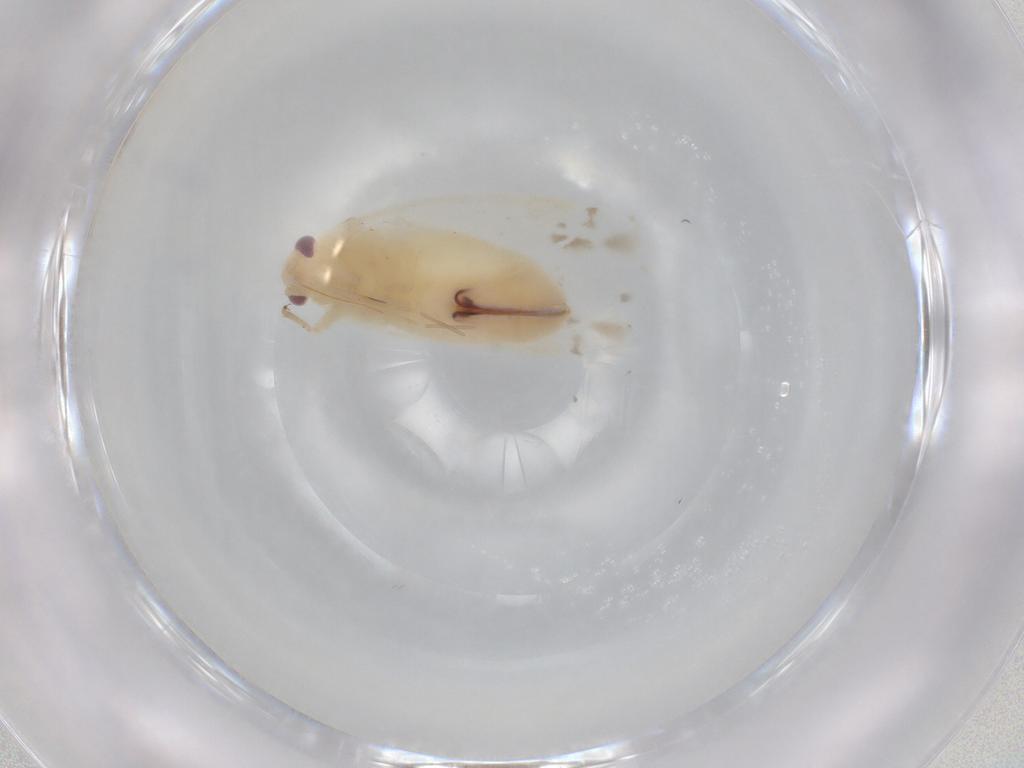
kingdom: Animalia
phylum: Arthropoda
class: Insecta
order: Hemiptera
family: Miridae
